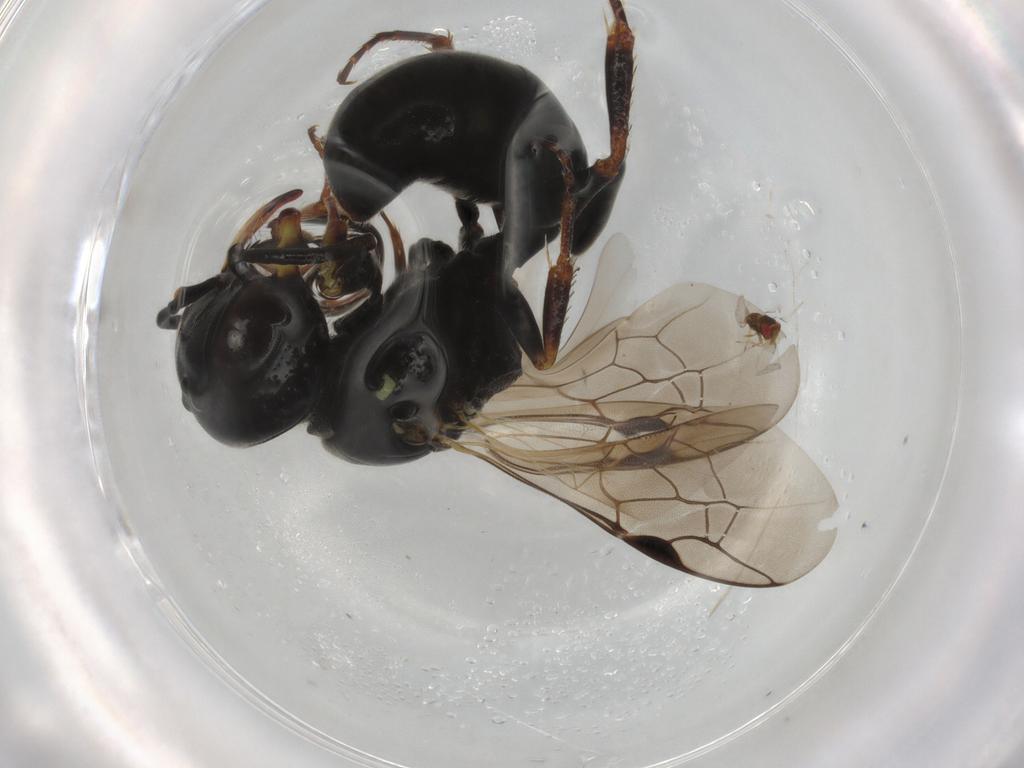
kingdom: Animalia
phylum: Arthropoda
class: Insecta
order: Hymenoptera
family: Crabronidae
